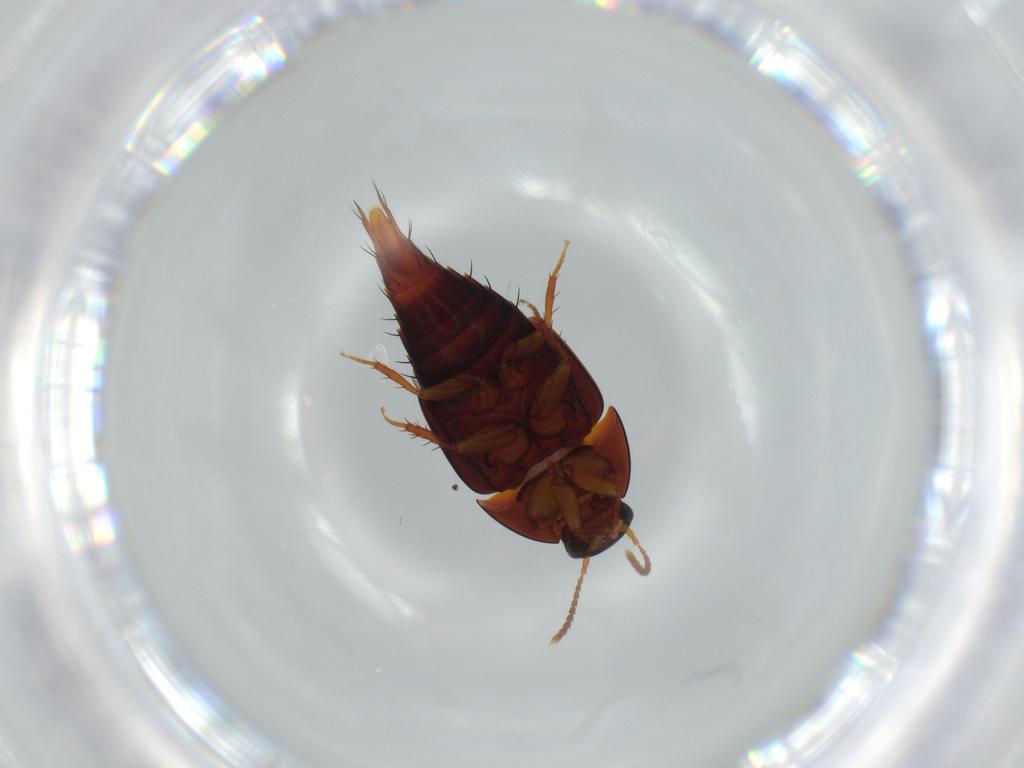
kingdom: Animalia
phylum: Arthropoda
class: Insecta
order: Coleoptera
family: Staphylinidae
